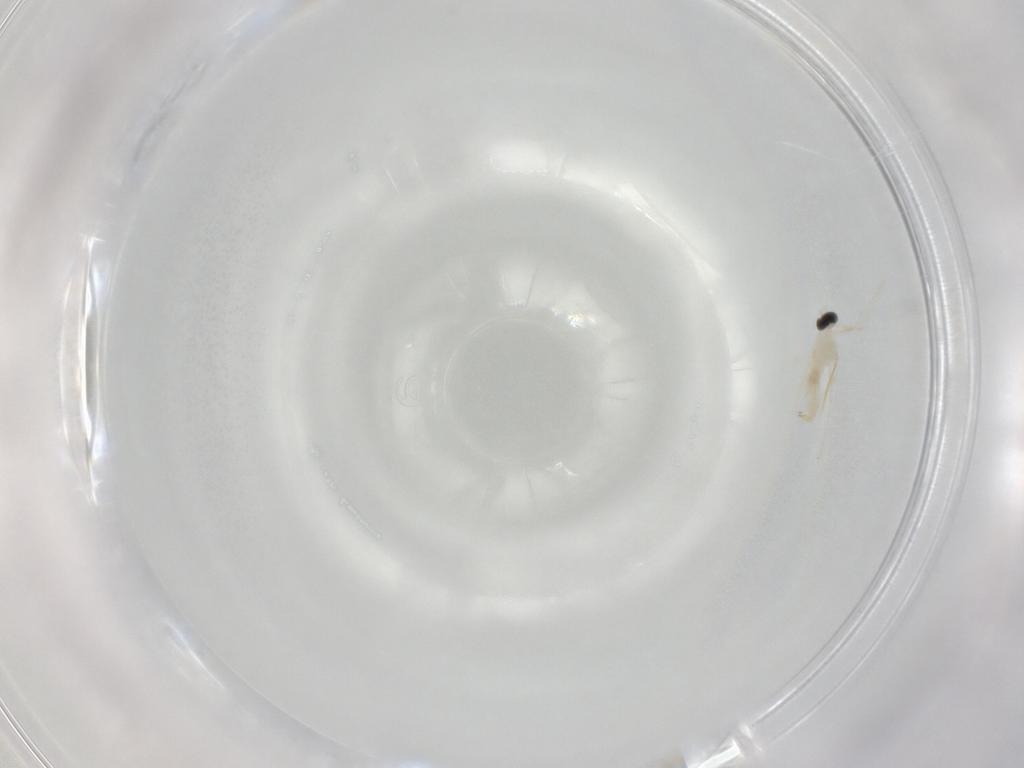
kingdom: Animalia
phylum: Arthropoda
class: Insecta
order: Diptera
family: Cecidomyiidae
